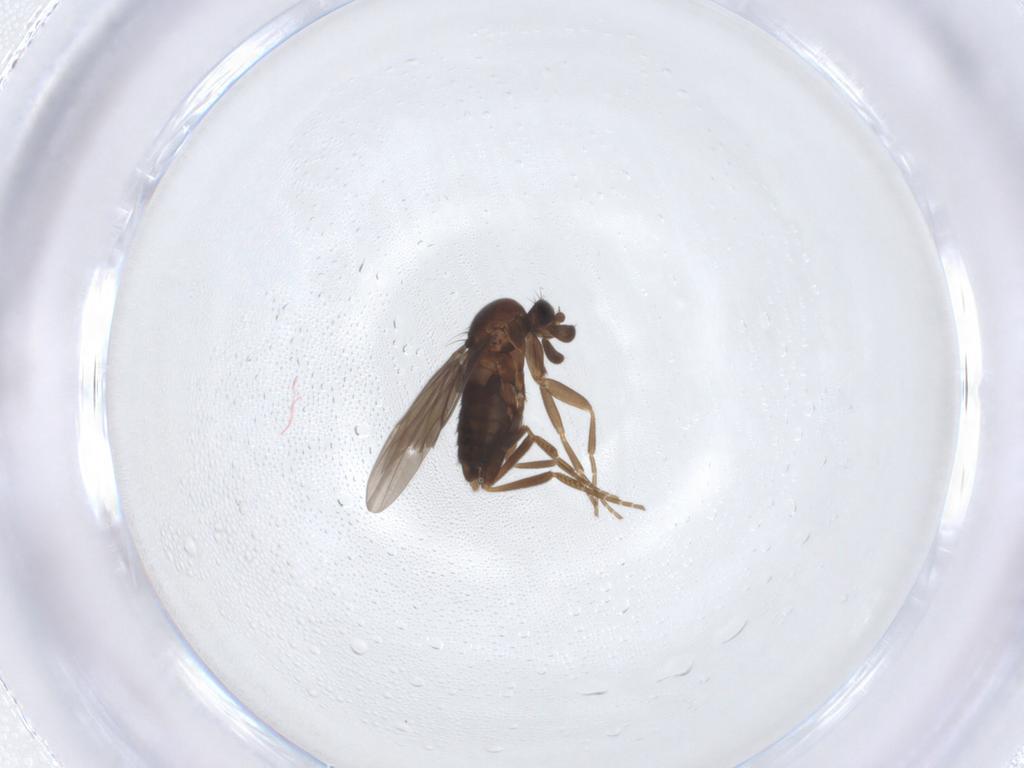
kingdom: Animalia
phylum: Arthropoda
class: Insecta
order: Diptera
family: Phoridae
